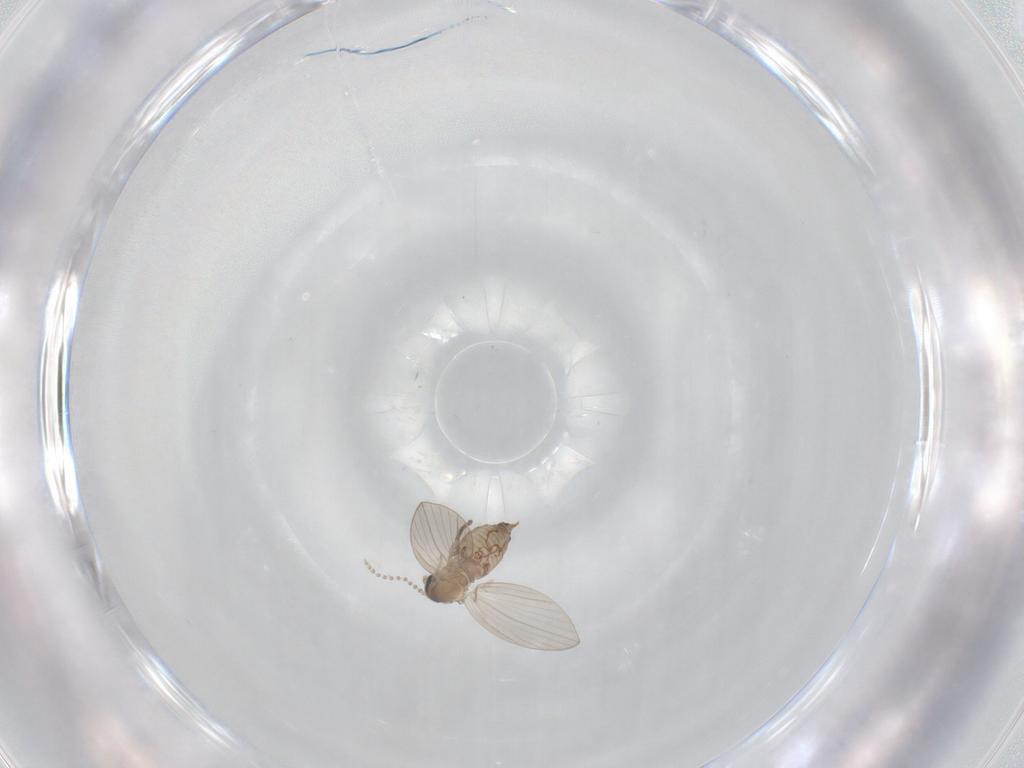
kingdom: Animalia
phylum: Arthropoda
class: Insecta
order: Diptera
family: Psychodidae
